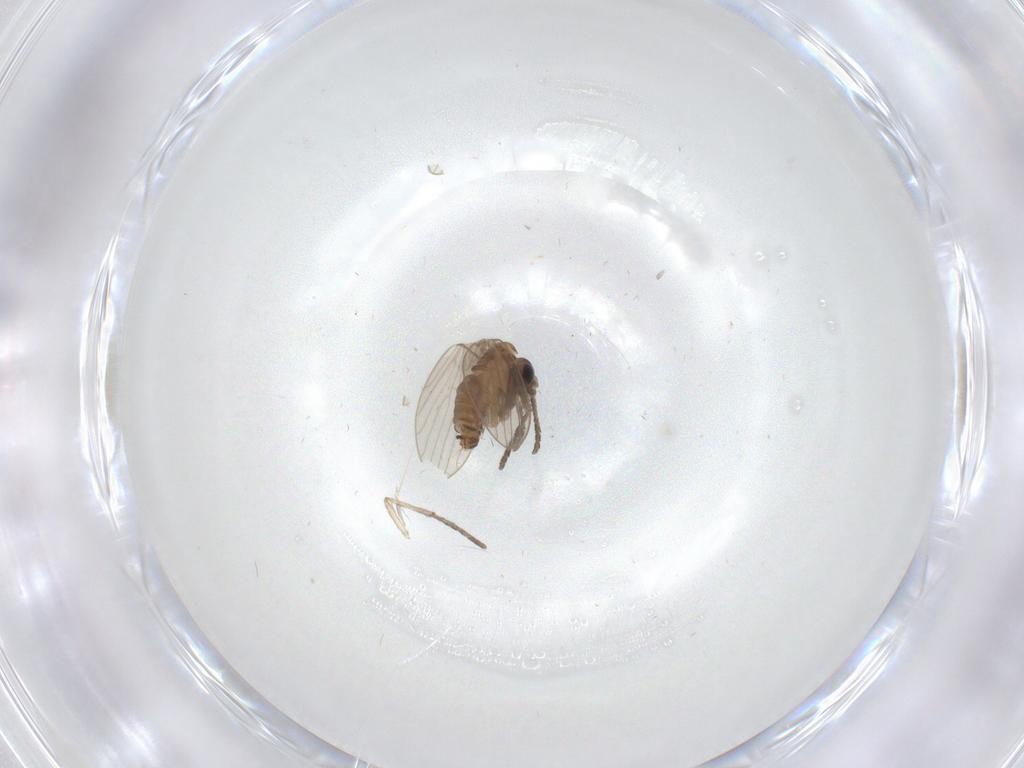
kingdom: Animalia
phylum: Arthropoda
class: Insecta
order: Diptera
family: Psychodidae
